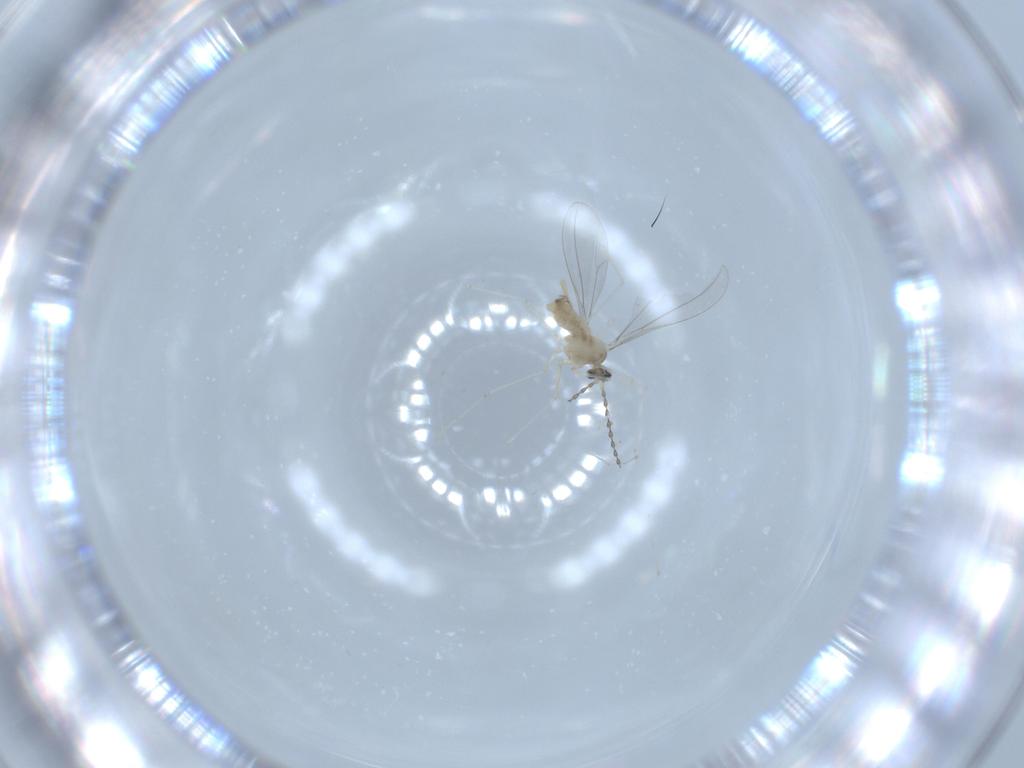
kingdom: Animalia
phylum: Arthropoda
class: Insecta
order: Diptera
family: Cecidomyiidae
